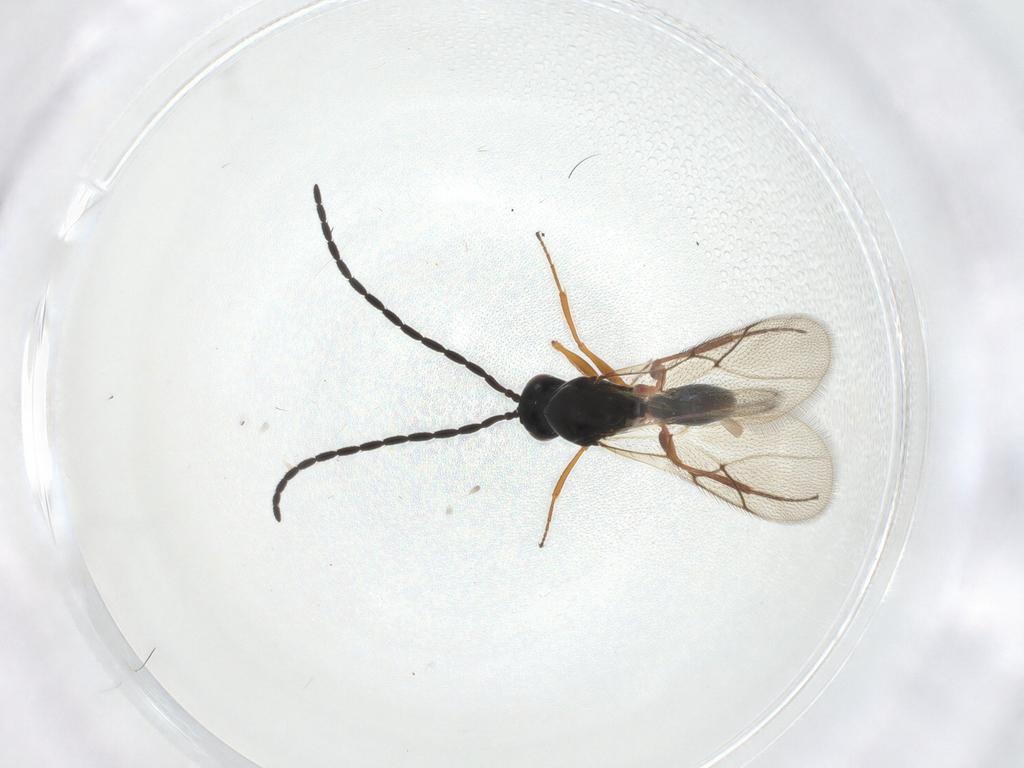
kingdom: Animalia
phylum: Arthropoda
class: Insecta
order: Hymenoptera
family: Figitidae
